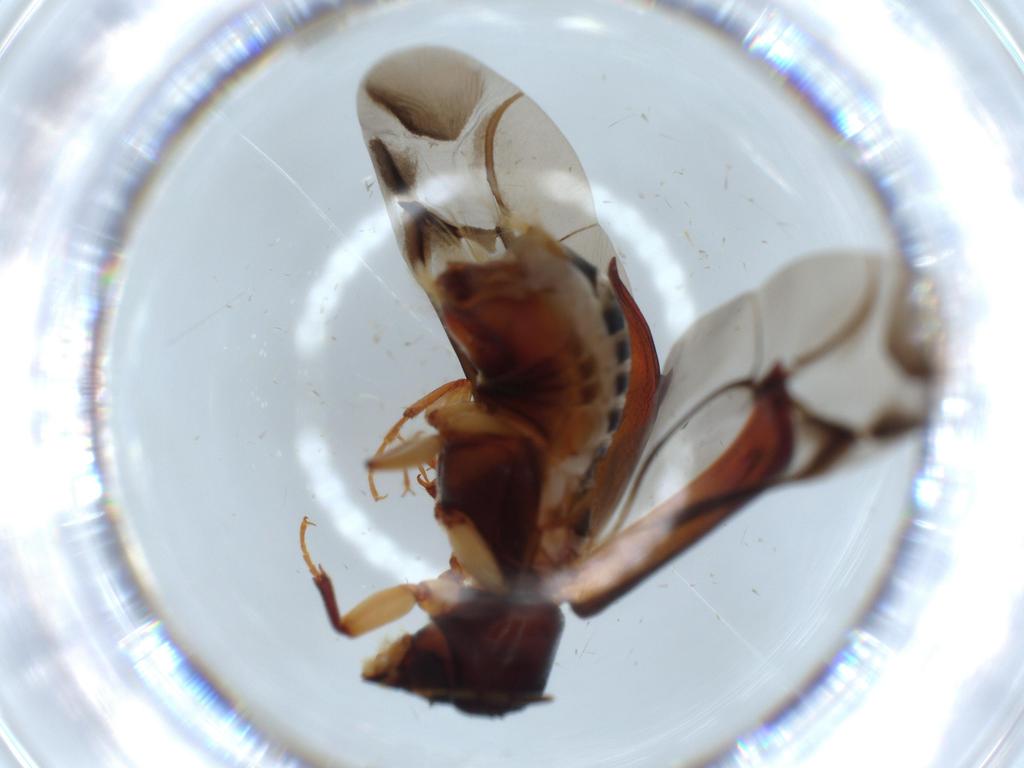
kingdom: Animalia
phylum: Arthropoda
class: Insecta
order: Coleoptera
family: Bostrichidae
